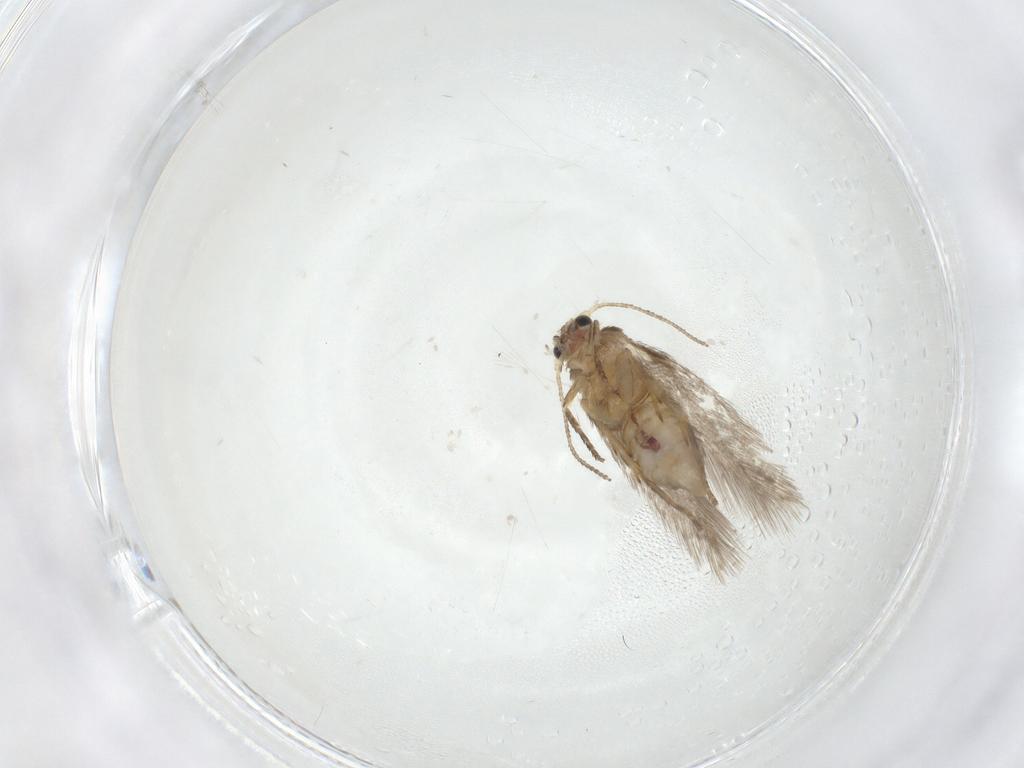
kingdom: Animalia
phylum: Arthropoda
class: Insecta
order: Lepidoptera
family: Nepticulidae
